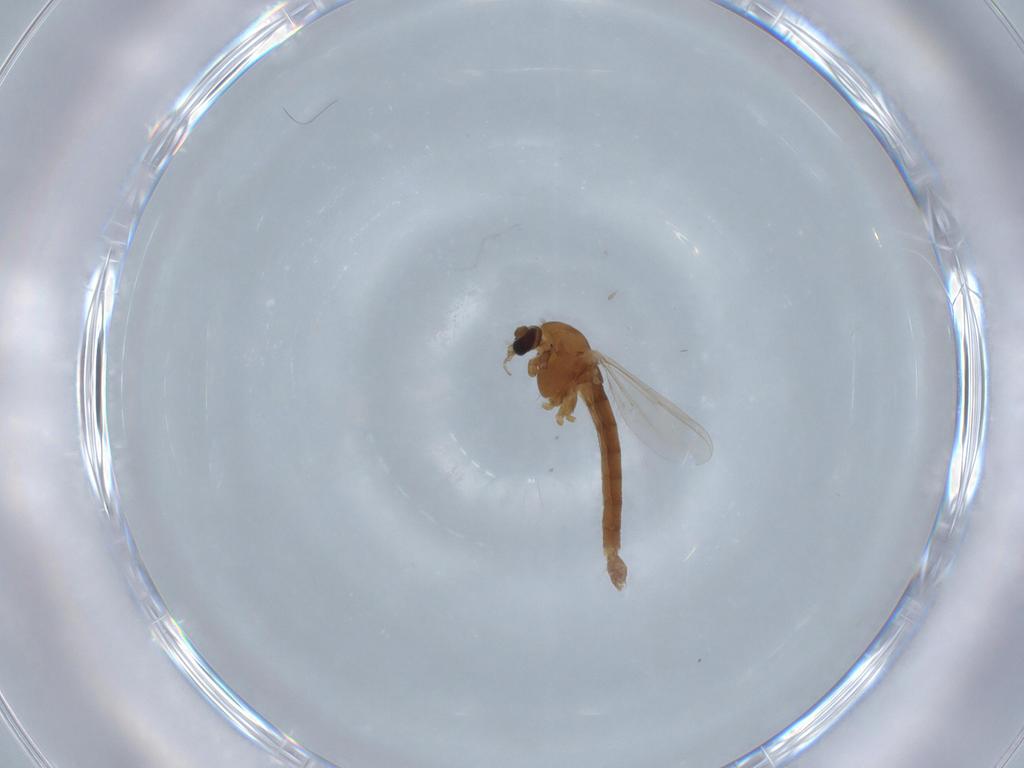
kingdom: Animalia
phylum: Arthropoda
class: Insecta
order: Diptera
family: Chironomidae
